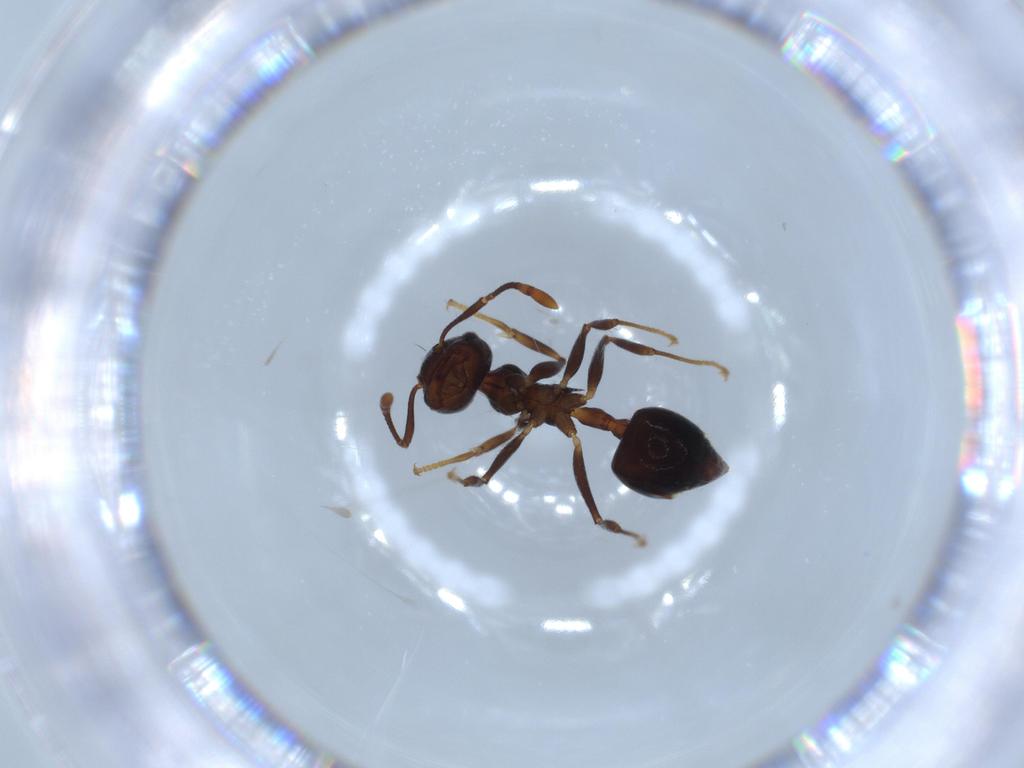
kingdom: Animalia
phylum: Arthropoda
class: Insecta
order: Hymenoptera
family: Formicidae
